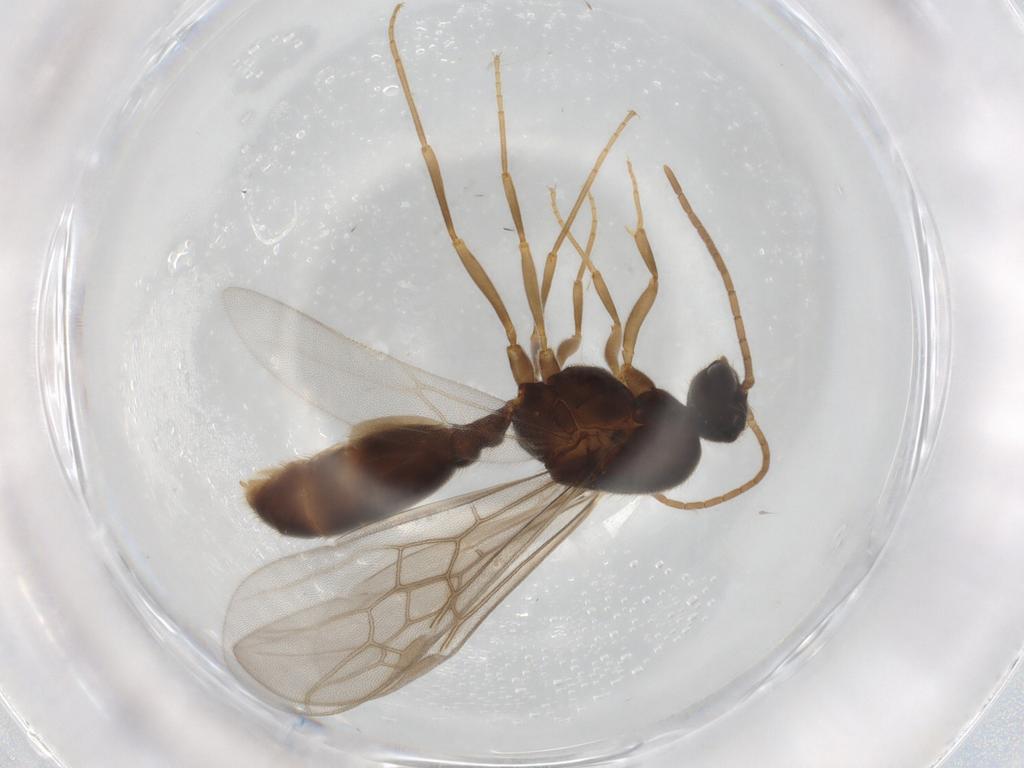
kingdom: Animalia
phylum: Arthropoda
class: Insecta
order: Hymenoptera
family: Formicidae
